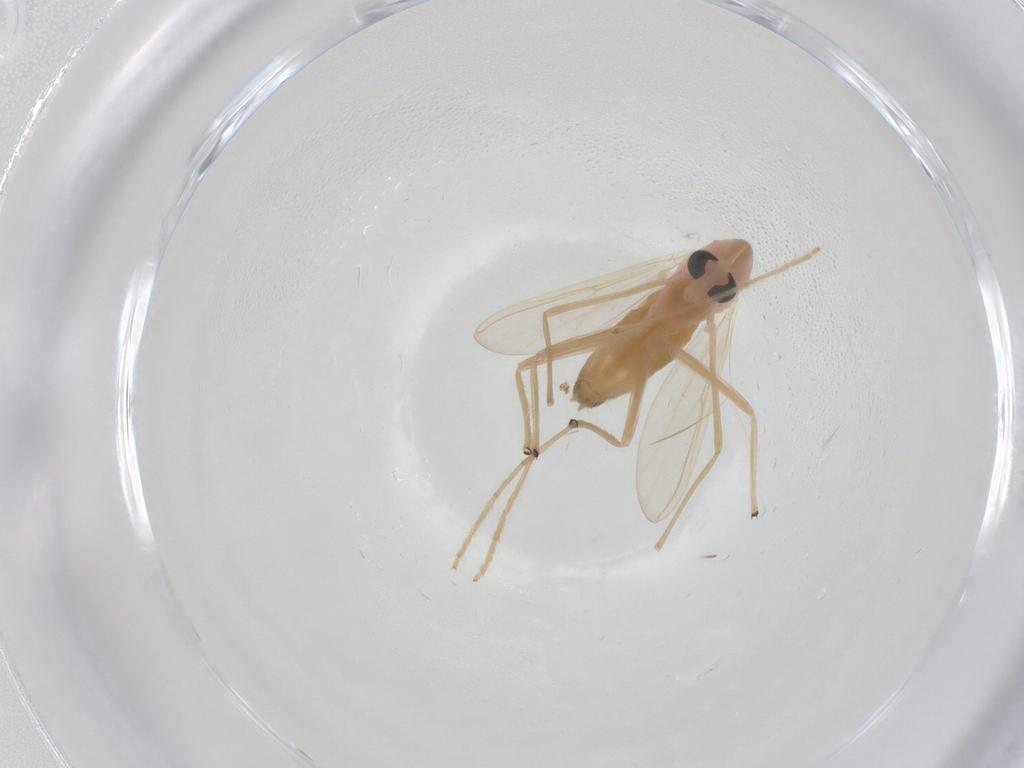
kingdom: Animalia
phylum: Arthropoda
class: Insecta
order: Diptera
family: Chironomidae
